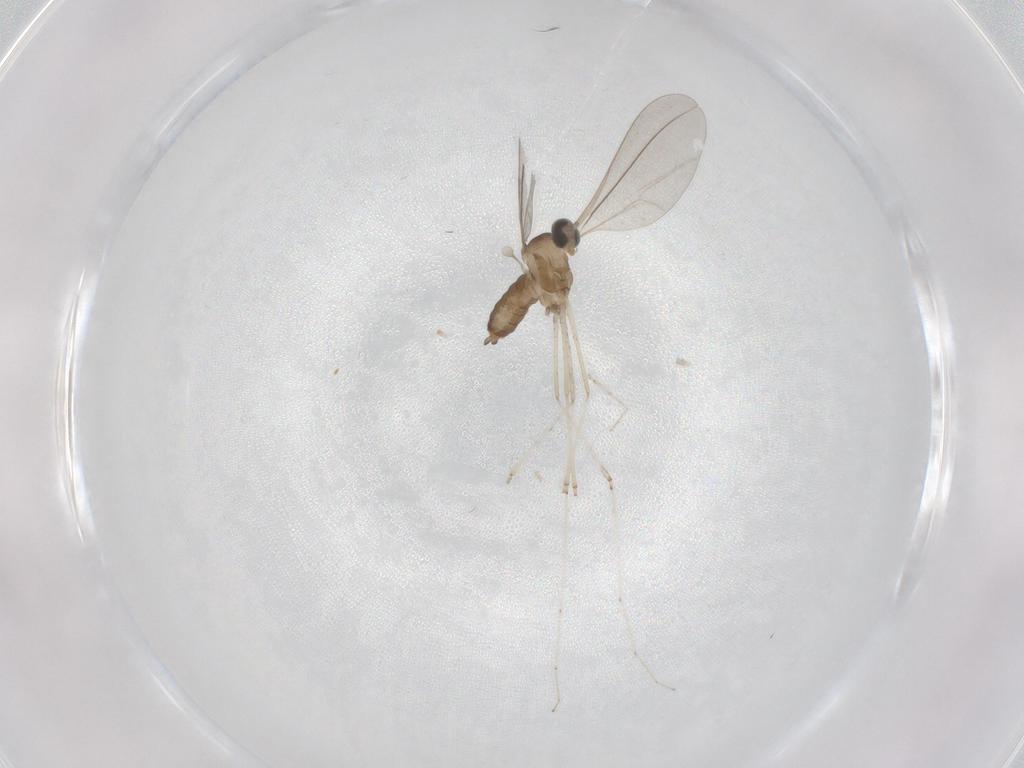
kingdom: Animalia
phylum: Arthropoda
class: Insecta
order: Diptera
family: Cecidomyiidae
